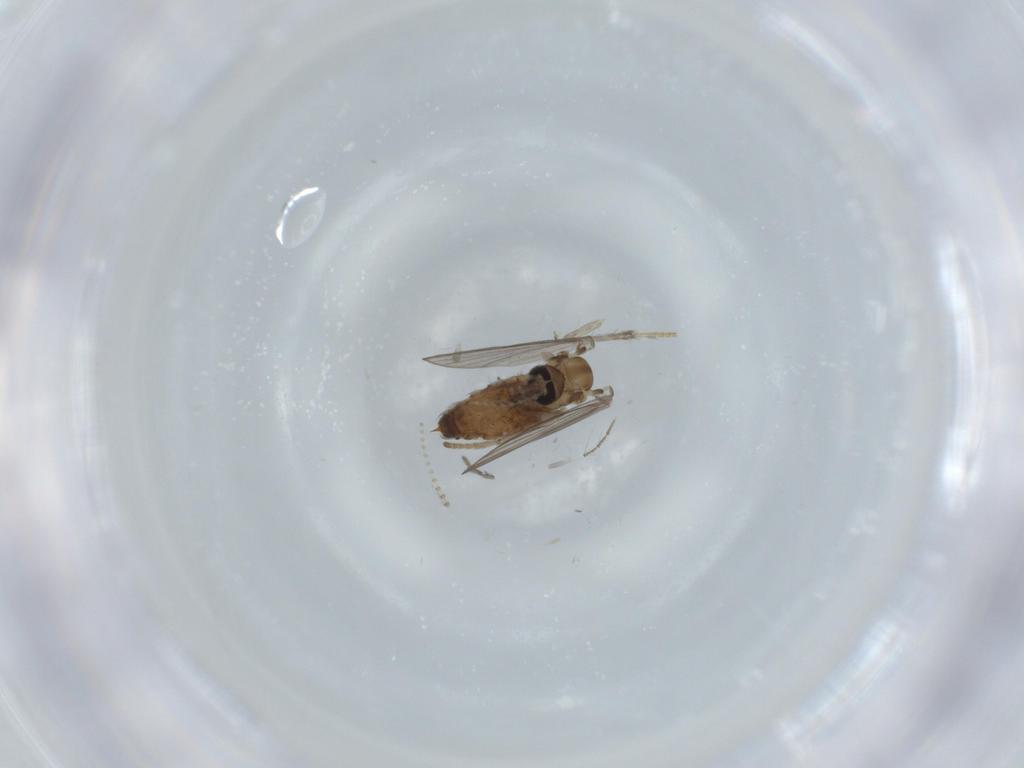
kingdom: Animalia
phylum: Arthropoda
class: Insecta
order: Diptera
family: Psychodidae
